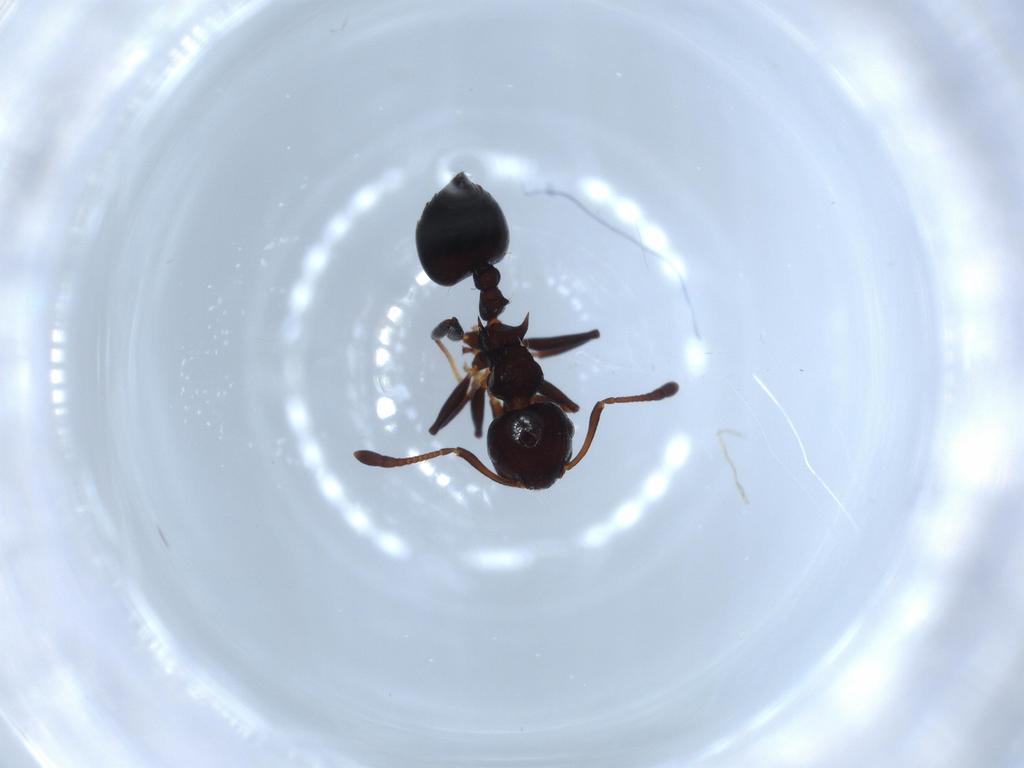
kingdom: Animalia
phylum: Arthropoda
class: Insecta
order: Hymenoptera
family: Formicidae
